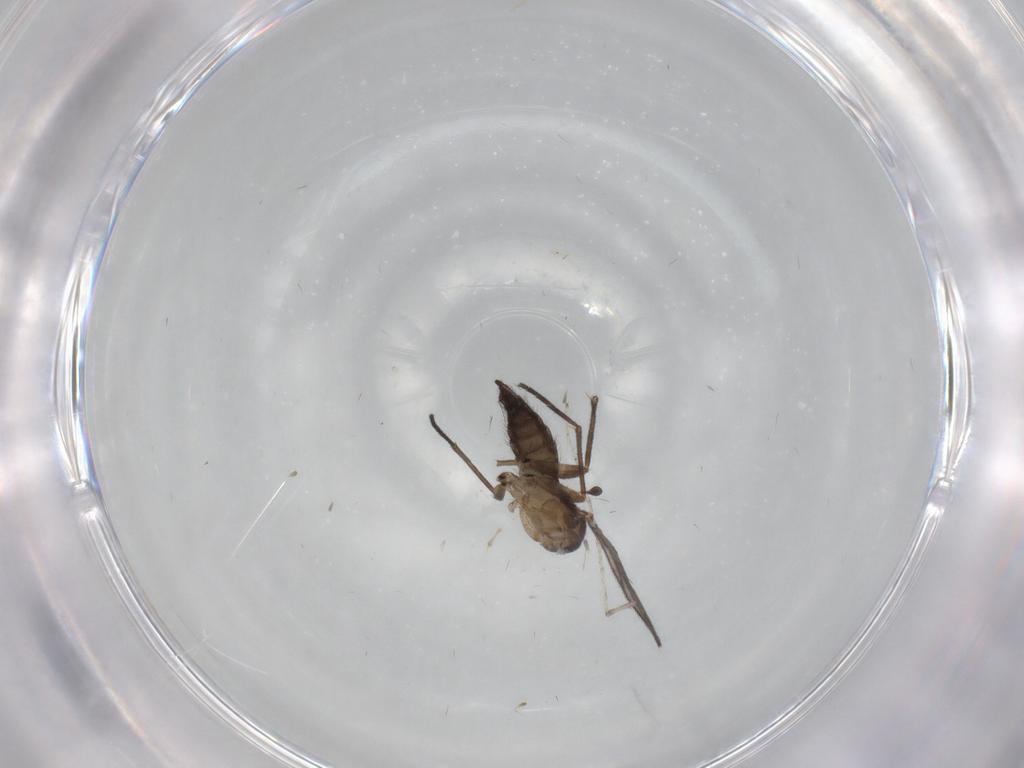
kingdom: Animalia
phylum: Arthropoda
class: Insecta
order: Diptera
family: Sciaridae
